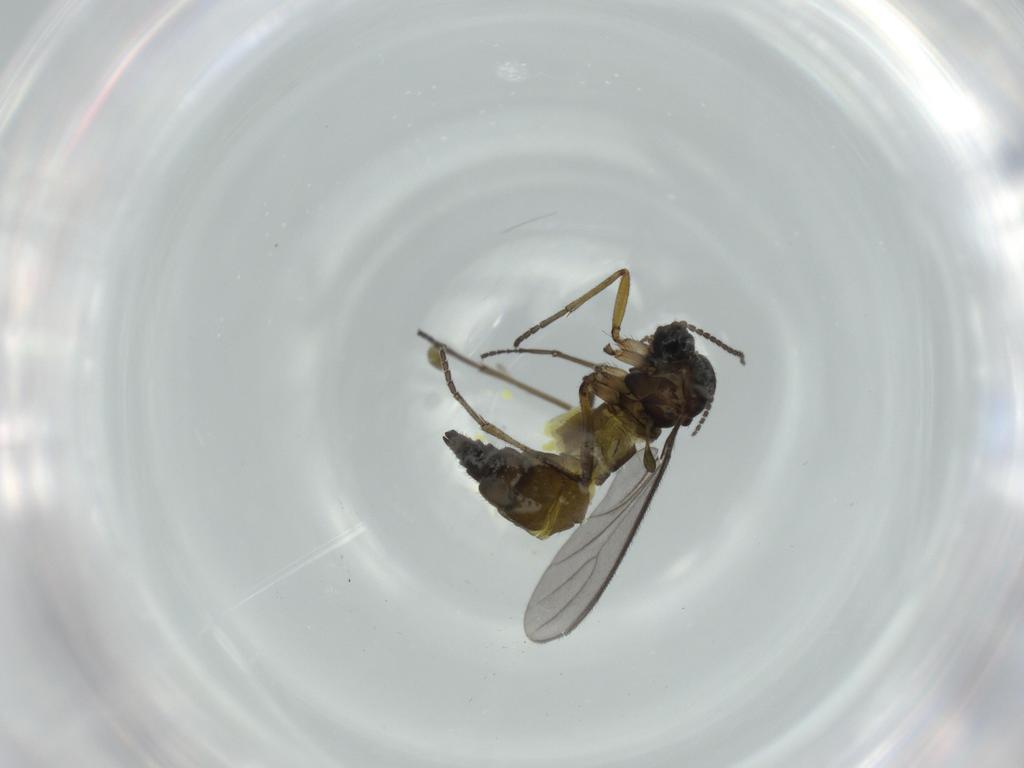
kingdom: Animalia
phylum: Arthropoda
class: Insecta
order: Diptera
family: Sciaridae
